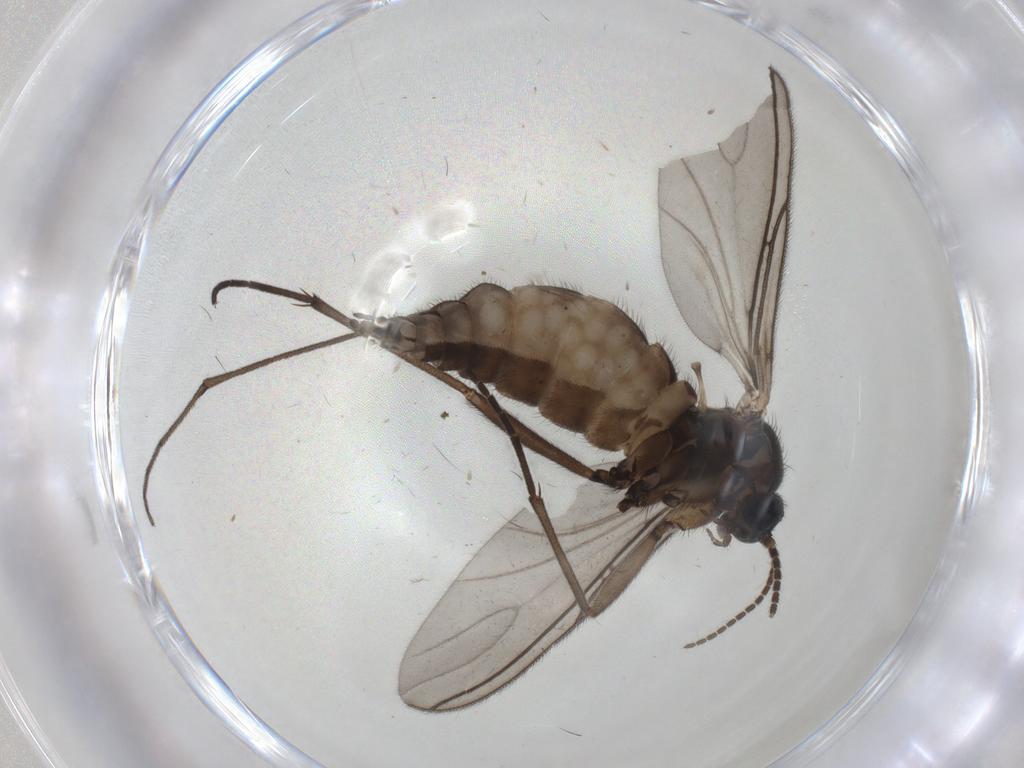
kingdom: Animalia
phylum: Arthropoda
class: Insecta
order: Diptera
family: Sciaridae
